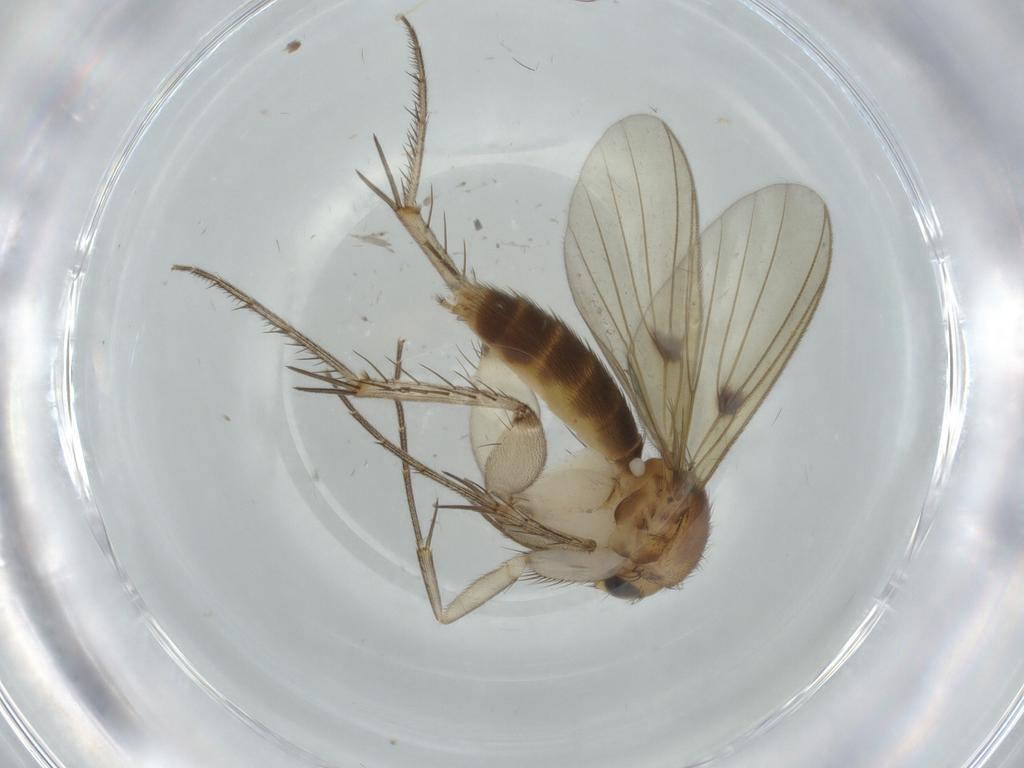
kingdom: Animalia
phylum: Arthropoda
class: Insecta
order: Diptera
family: Mycetophilidae
